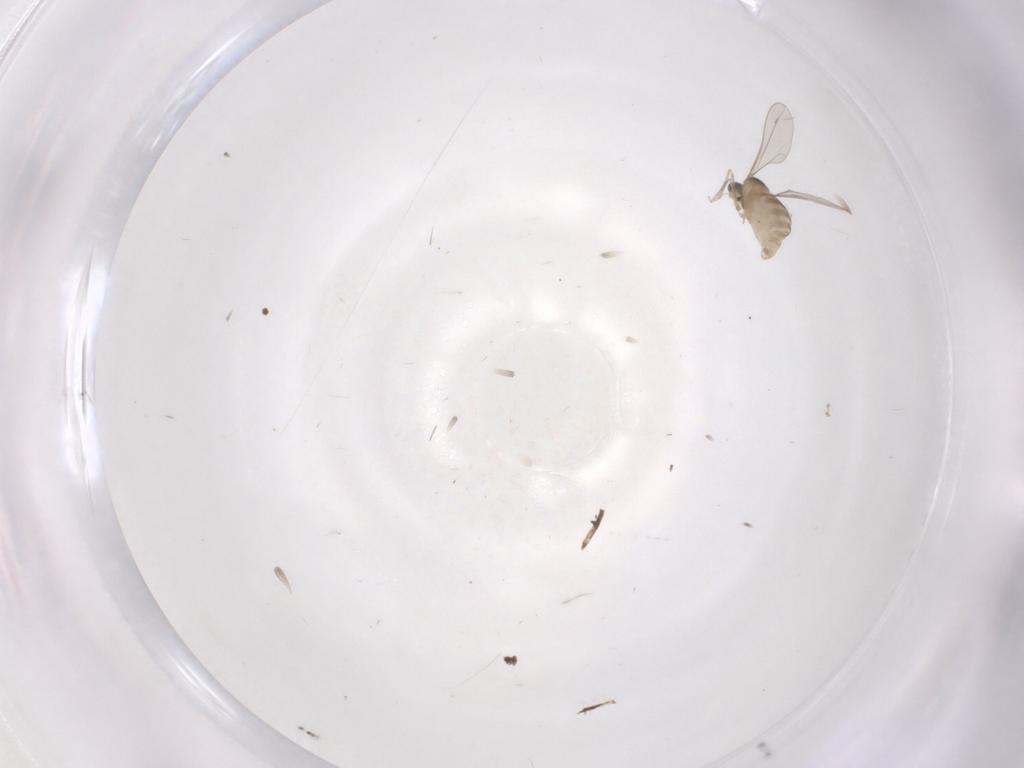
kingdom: Animalia
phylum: Arthropoda
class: Insecta
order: Diptera
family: Cecidomyiidae
